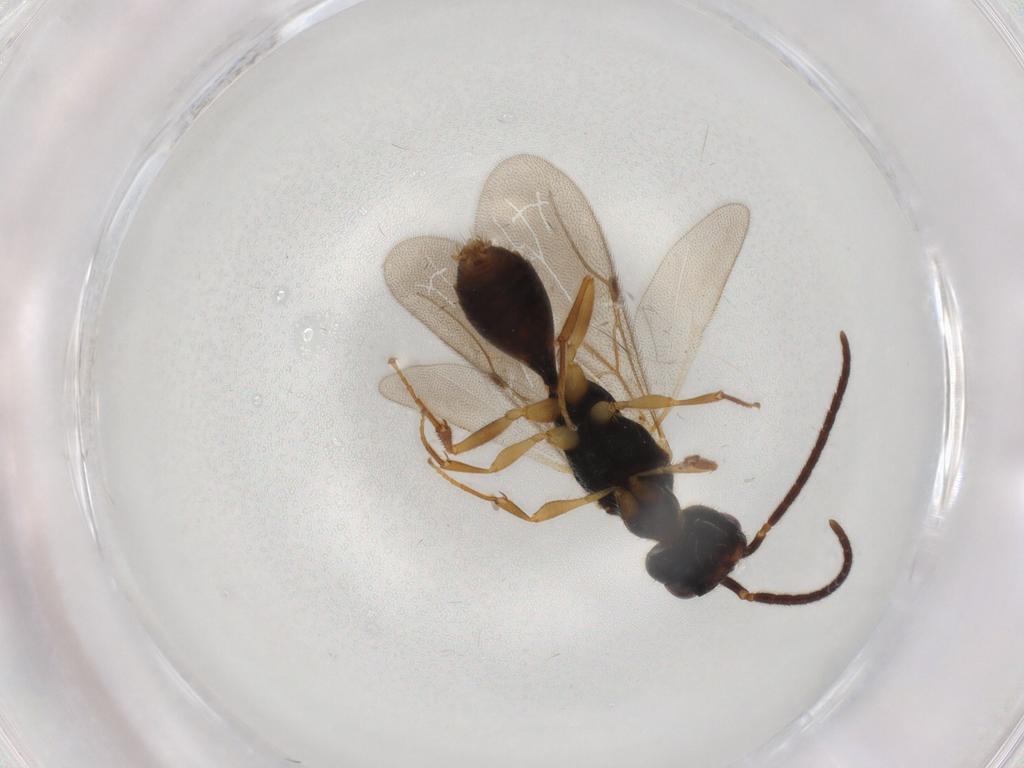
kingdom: Animalia
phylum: Arthropoda
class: Insecta
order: Hymenoptera
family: Bethylidae
